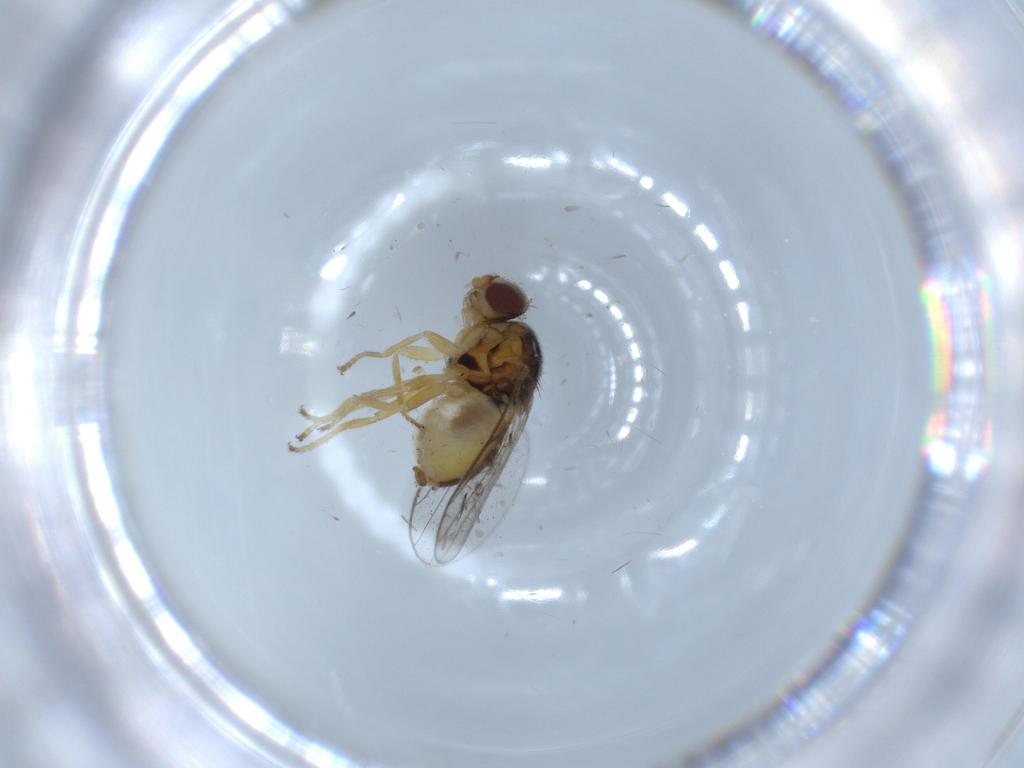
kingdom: Animalia
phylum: Arthropoda
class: Insecta
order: Diptera
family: Chloropidae
